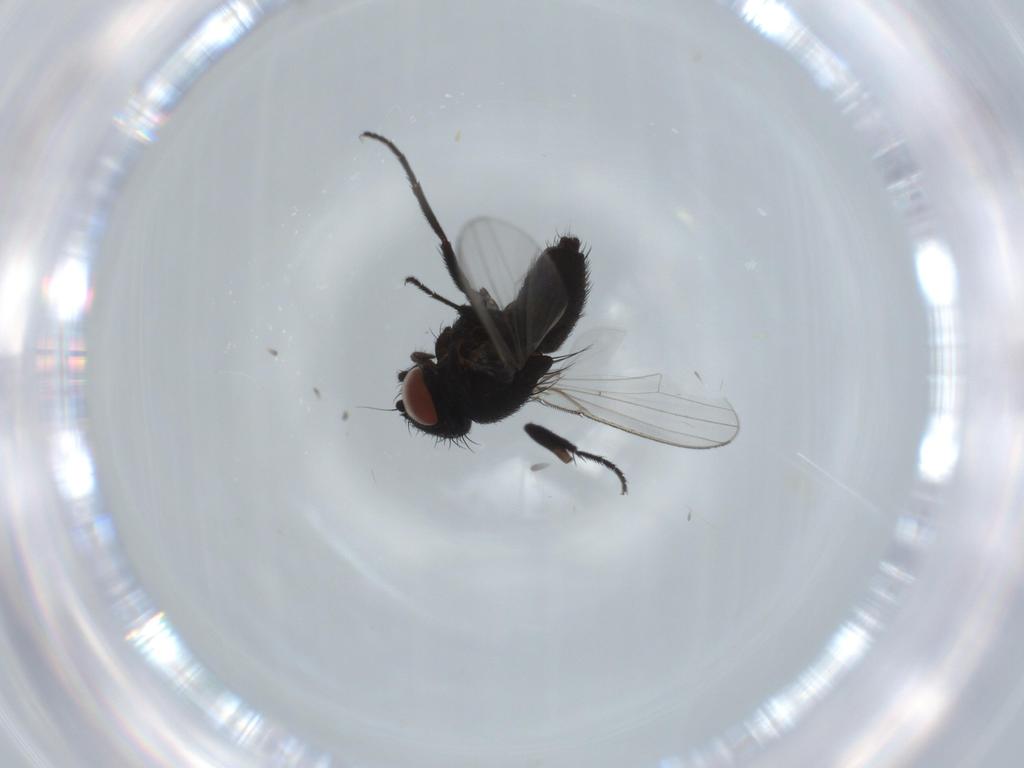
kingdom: Animalia
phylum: Arthropoda
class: Insecta
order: Diptera
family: Milichiidae
